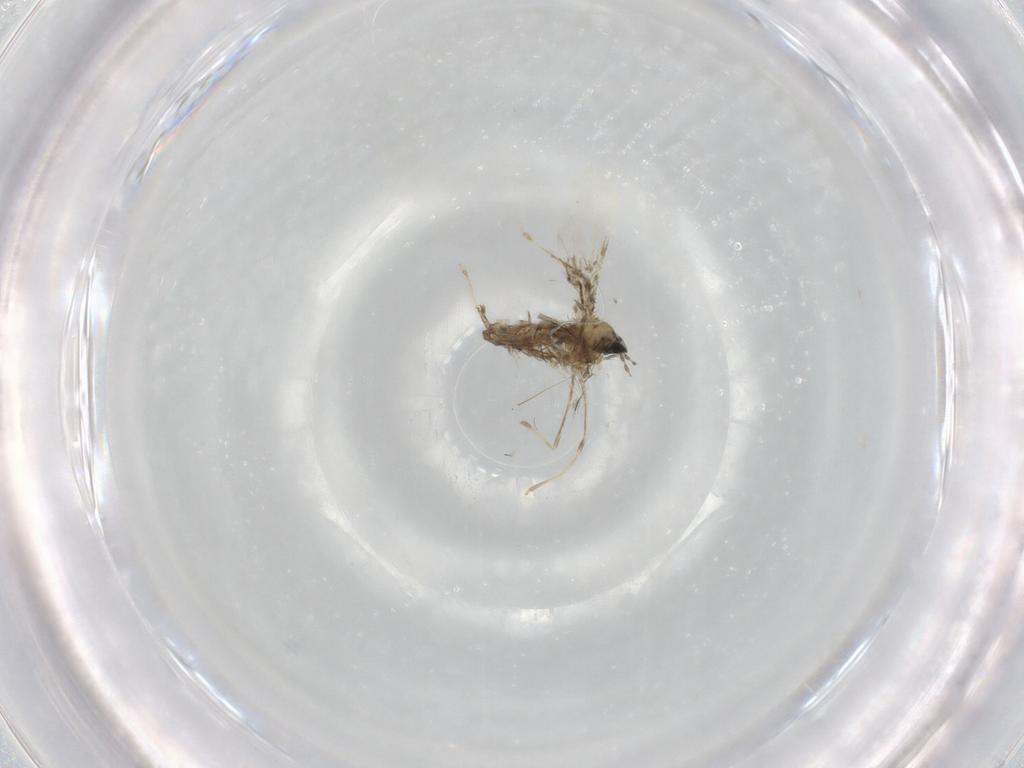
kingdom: Animalia
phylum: Arthropoda
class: Insecta
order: Diptera
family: Cecidomyiidae
